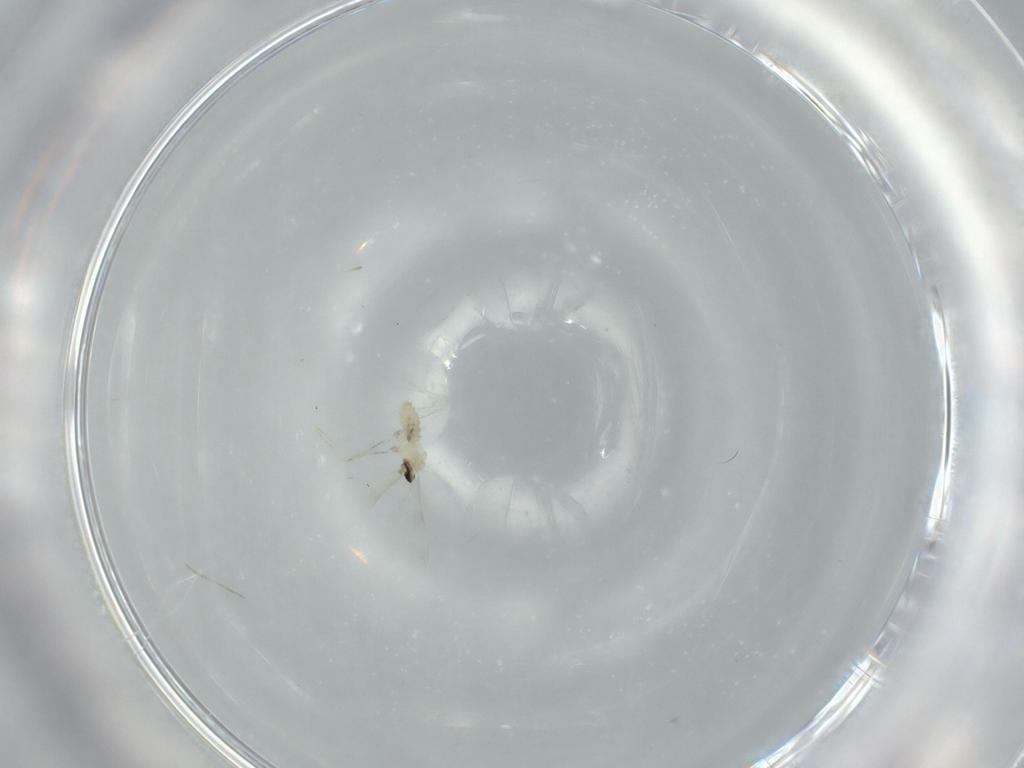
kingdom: Animalia
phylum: Arthropoda
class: Insecta
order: Diptera
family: Cecidomyiidae
